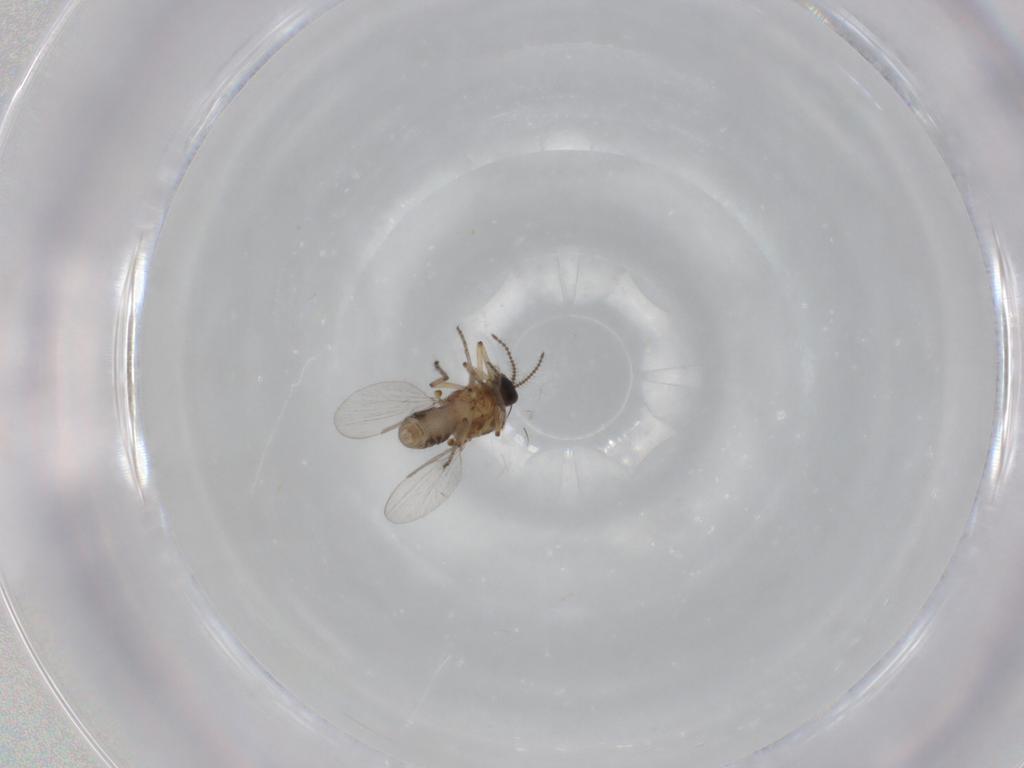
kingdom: Animalia
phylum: Arthropoda
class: Insecta
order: Diptera
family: Ceratopogonidae
